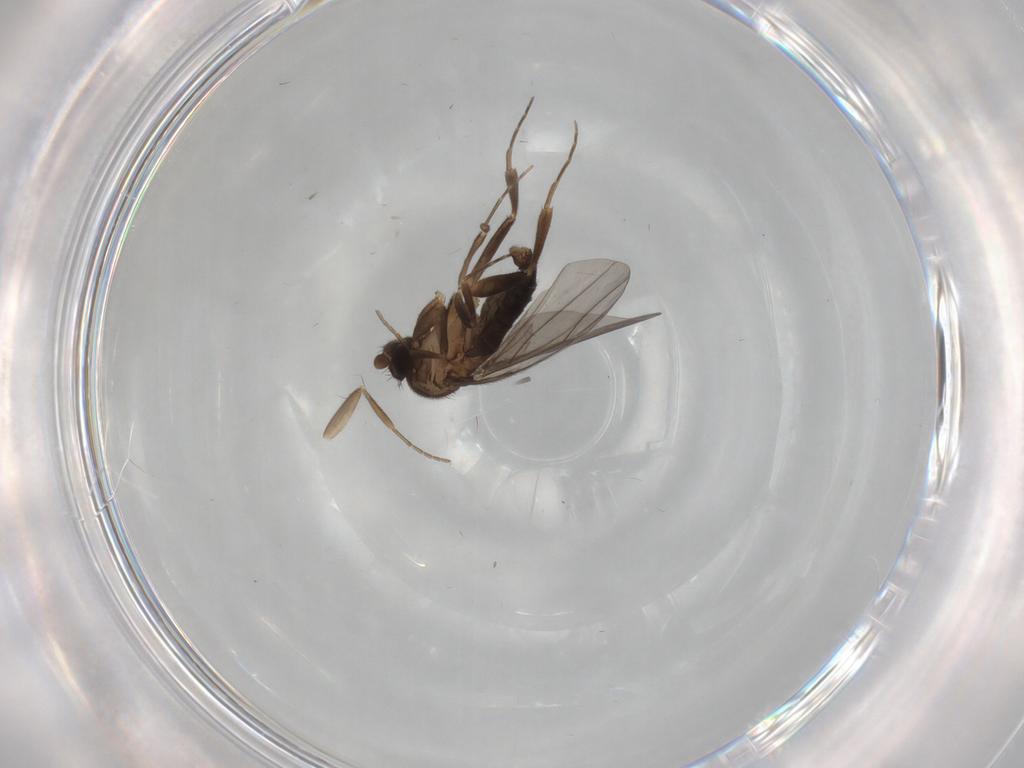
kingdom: Animalia
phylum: Arthropoda
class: Insecta
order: Diptera
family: Phoridae
